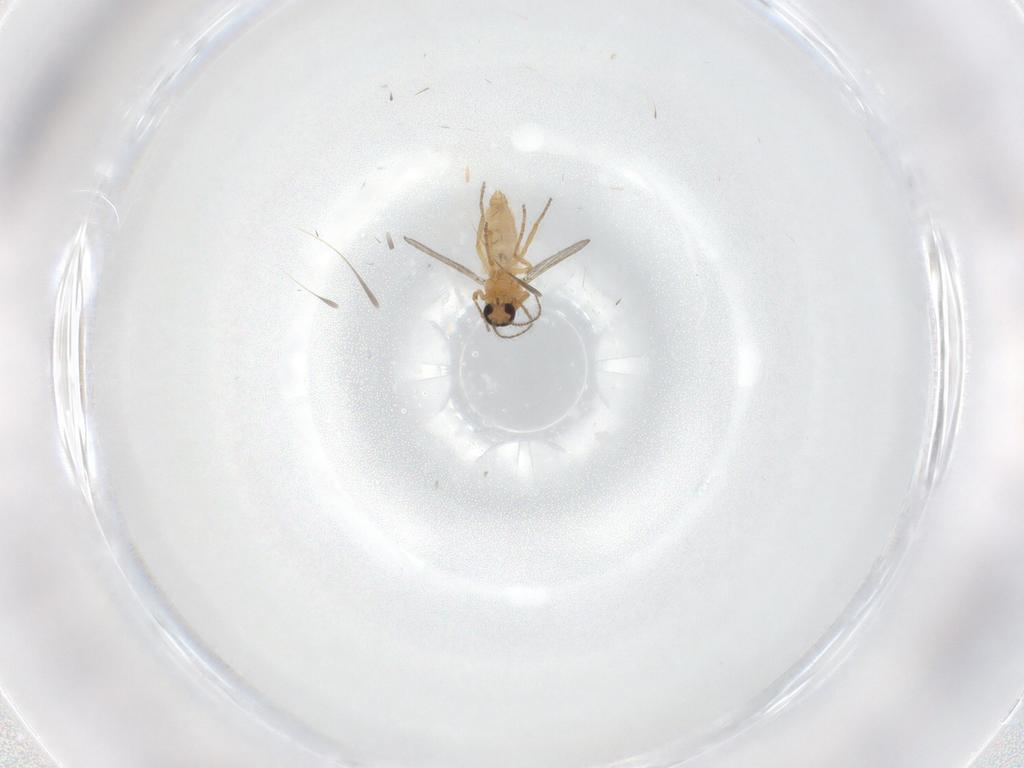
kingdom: Animalia
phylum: Arthropoda
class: Insecta
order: Diptera
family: Ceratopogonidae
